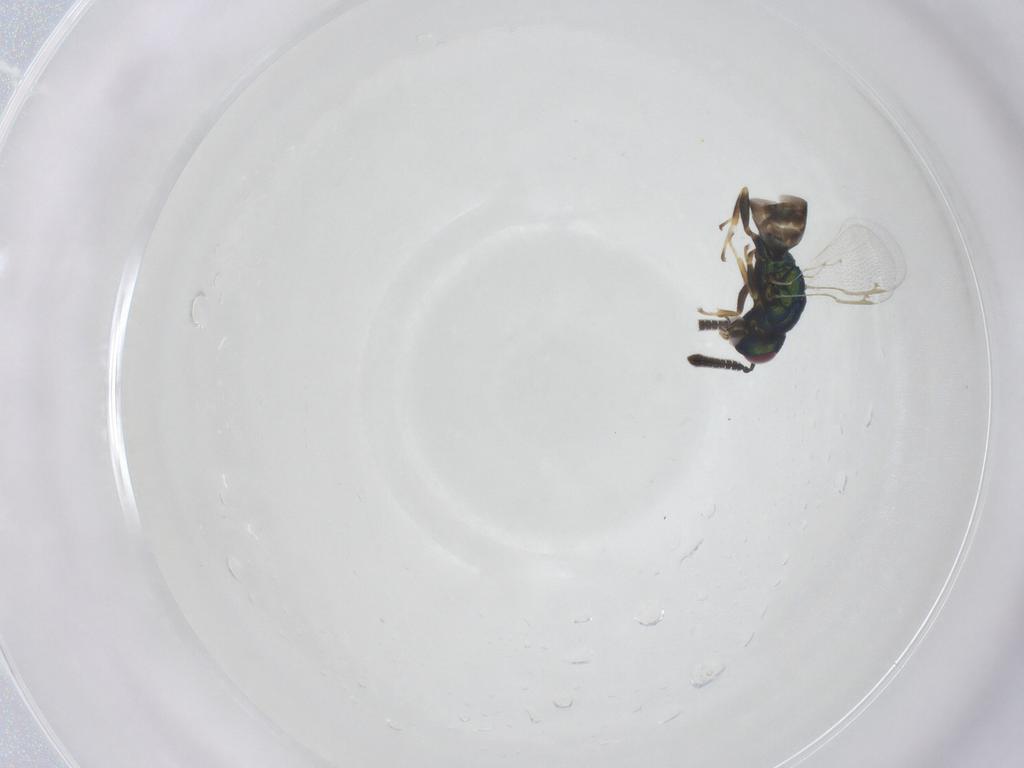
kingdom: Animalia
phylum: Arthropoda
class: Insecta
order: Hymenoptera
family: Torymidae
